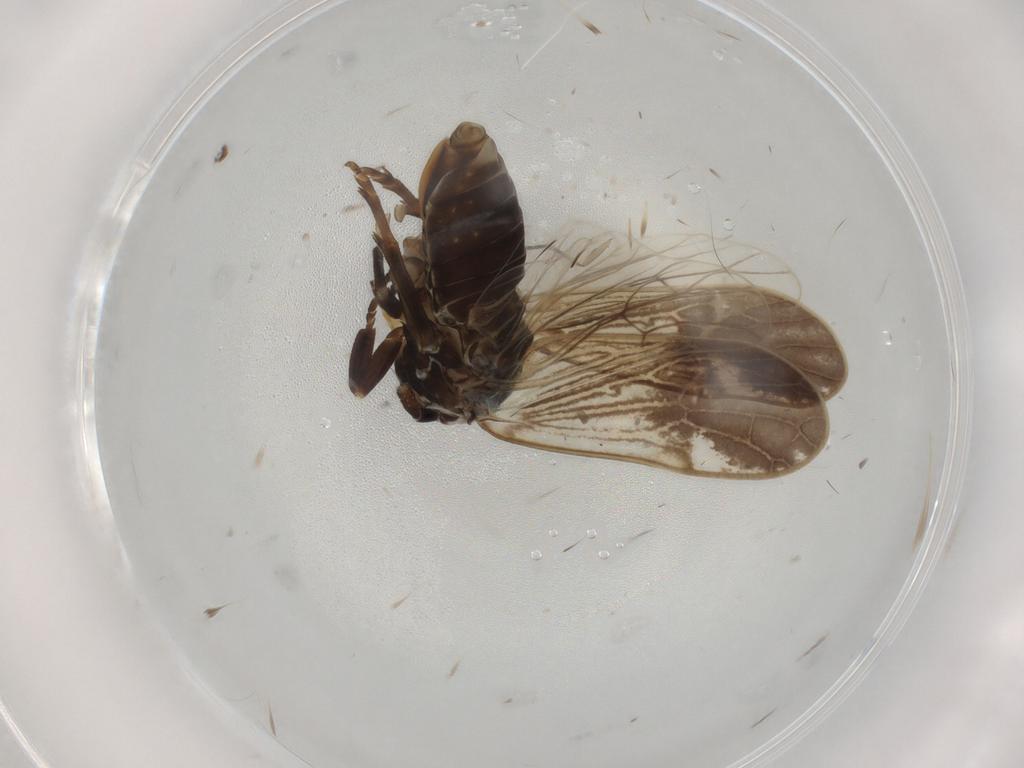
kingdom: Animalia
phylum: Arthropoda
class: Insecta
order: Hemiptera
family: Delphacidae
